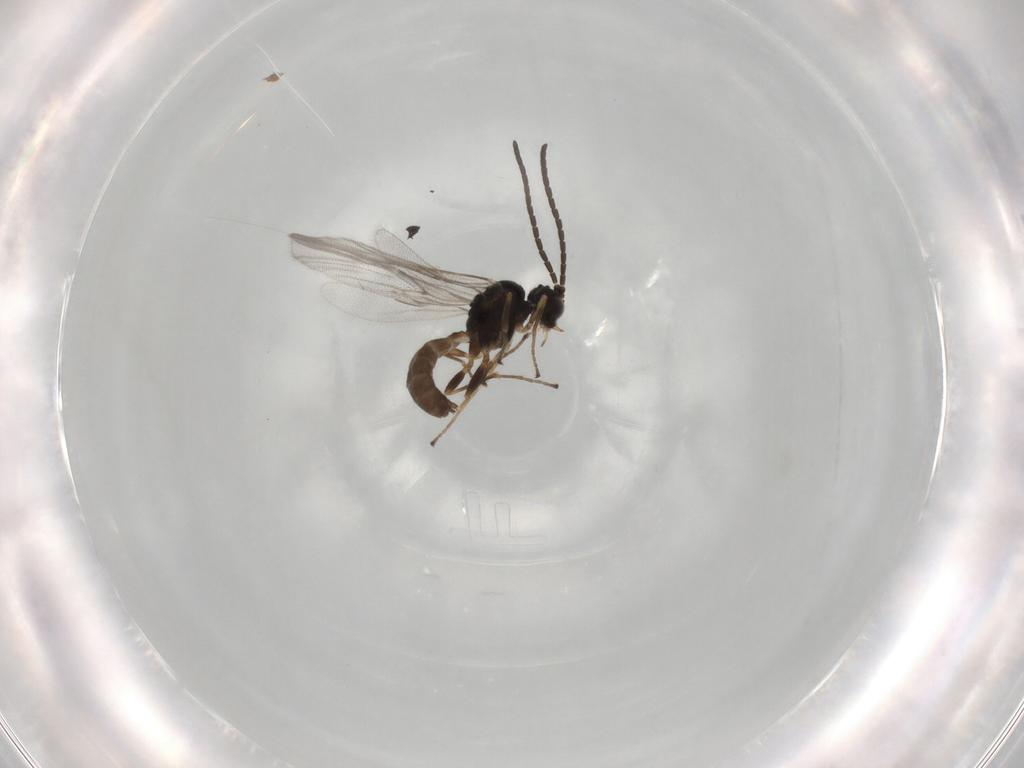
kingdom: Animalia
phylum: Arthropoda
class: Insecta
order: Hymenoptera
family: Braconidae
